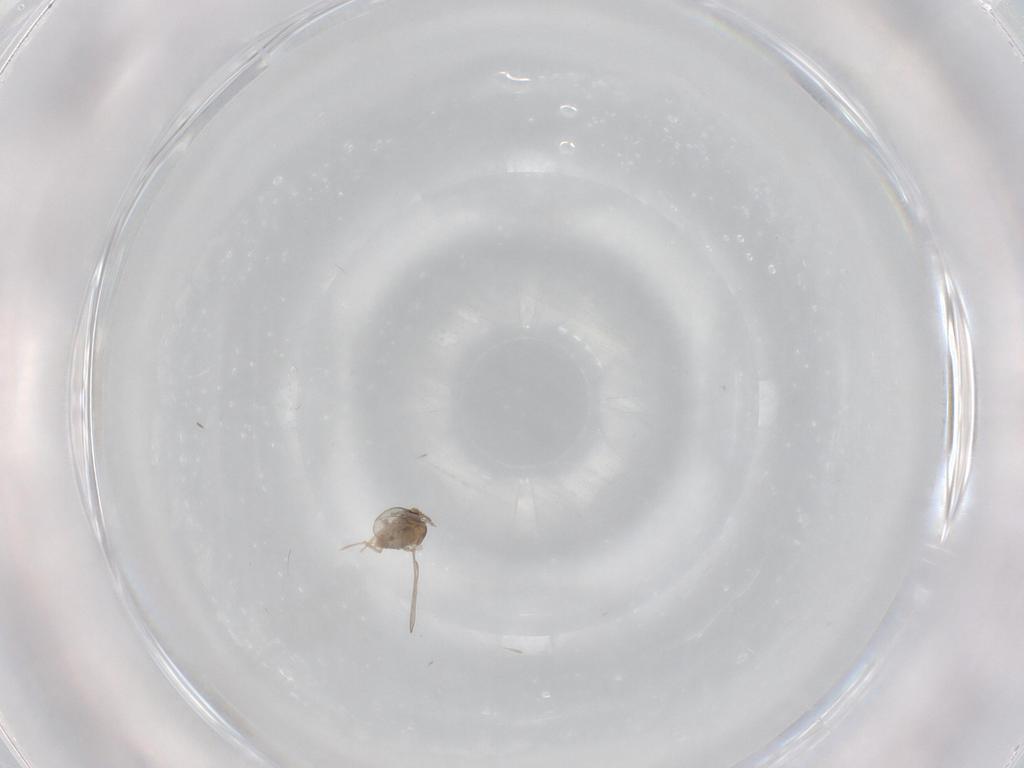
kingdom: Animalia
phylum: Arthropoda
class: Insecta
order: Diptera
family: Cecidomyiidae
